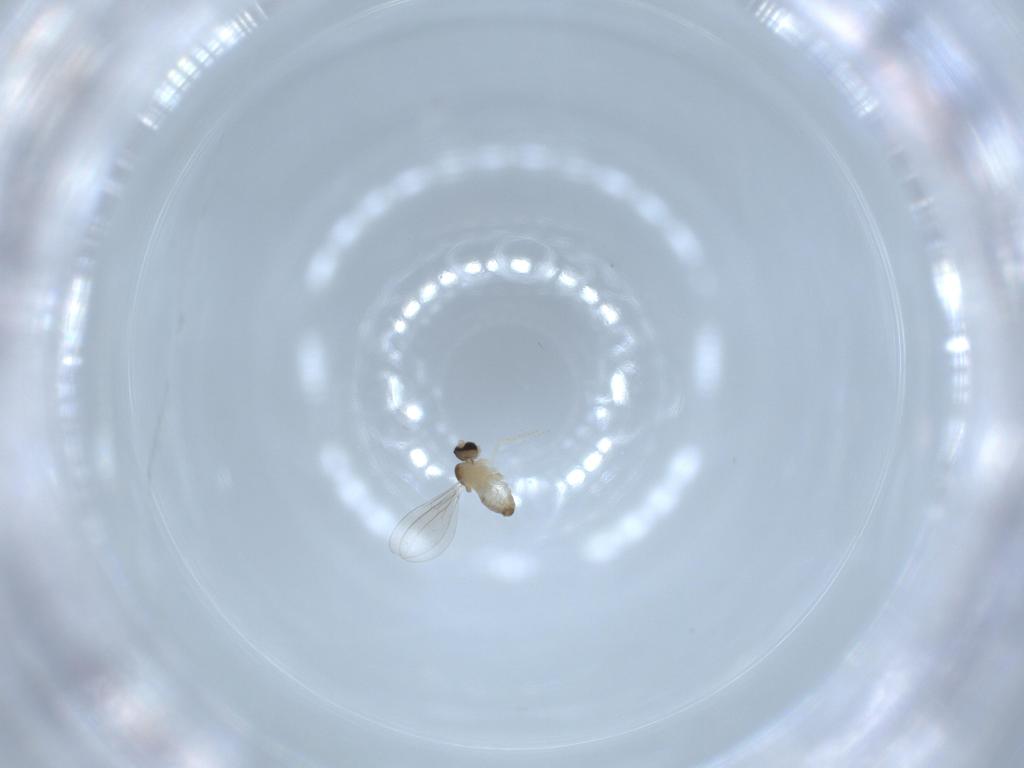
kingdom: Animalia
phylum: Arthropoda
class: Insecta
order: Diptera
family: Cecidomyiidae
